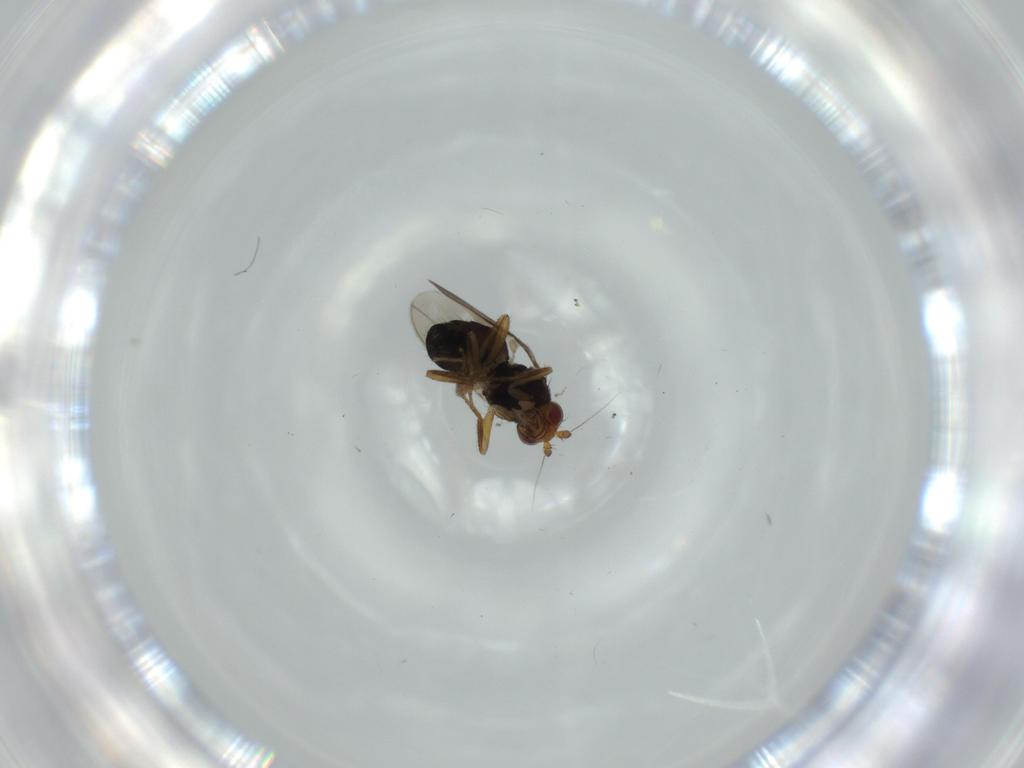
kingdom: Animalia
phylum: Arthropoda
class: Insecta
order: Diptera
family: Sphaeroceridae
